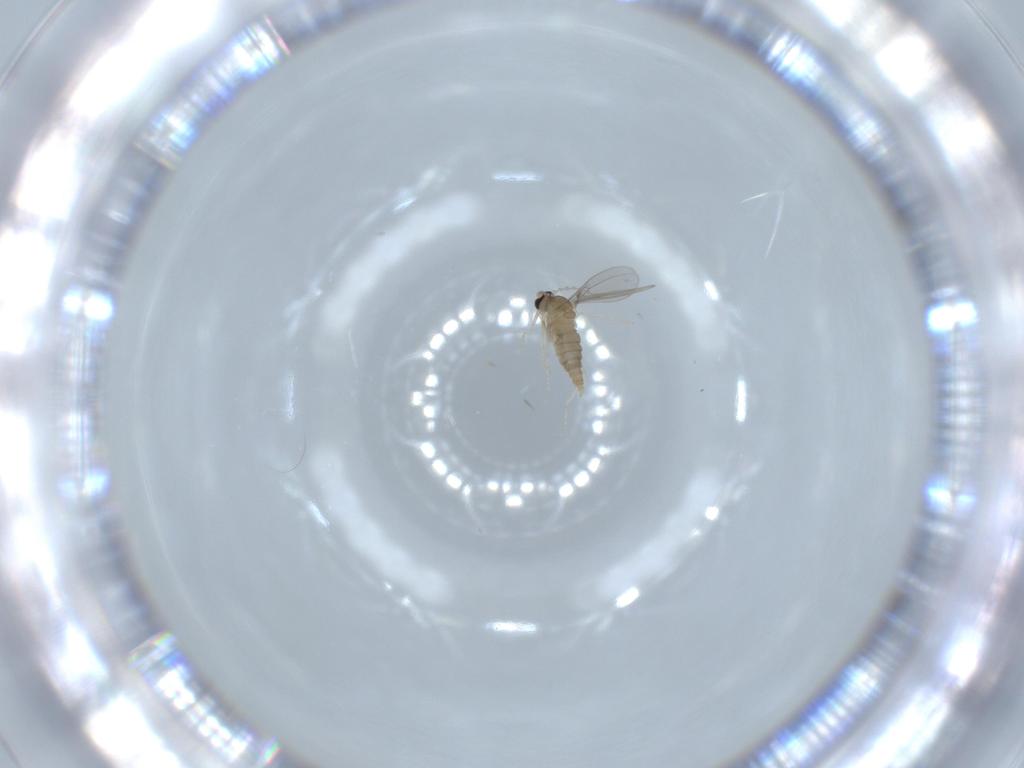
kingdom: Animalia
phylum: Arthropoda
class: Insecta
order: Diptera
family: Cecidomyiidae
